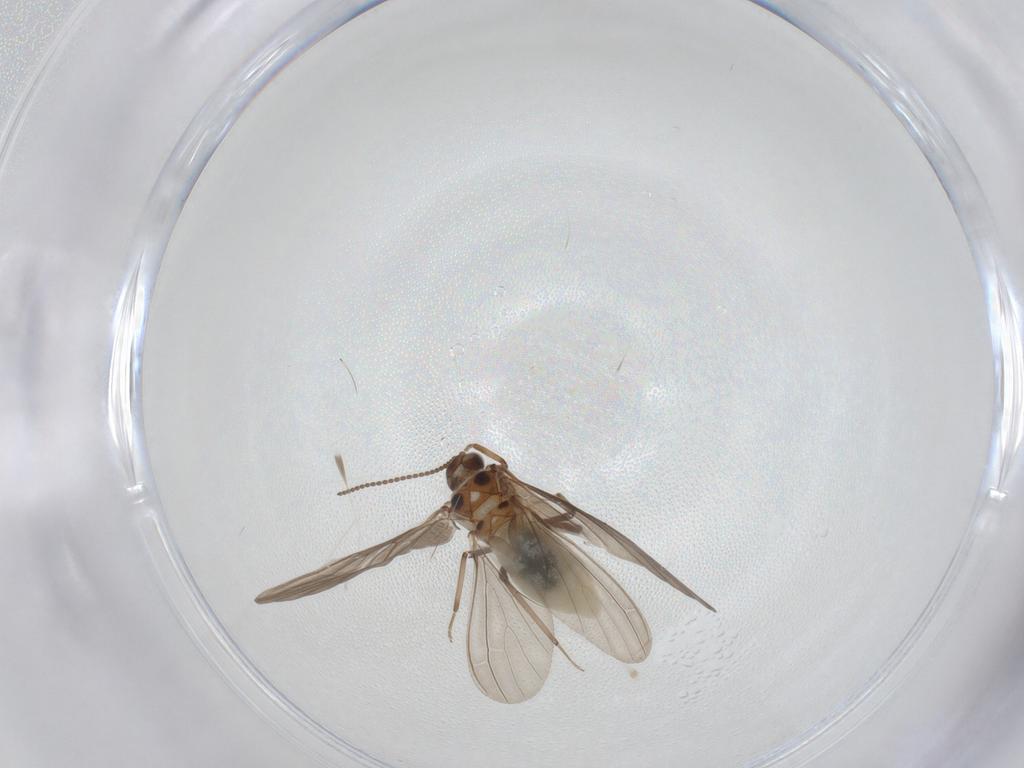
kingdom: Animalia
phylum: Arthropoda
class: Insecta
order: Neuroptera
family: Coniopterygidae
